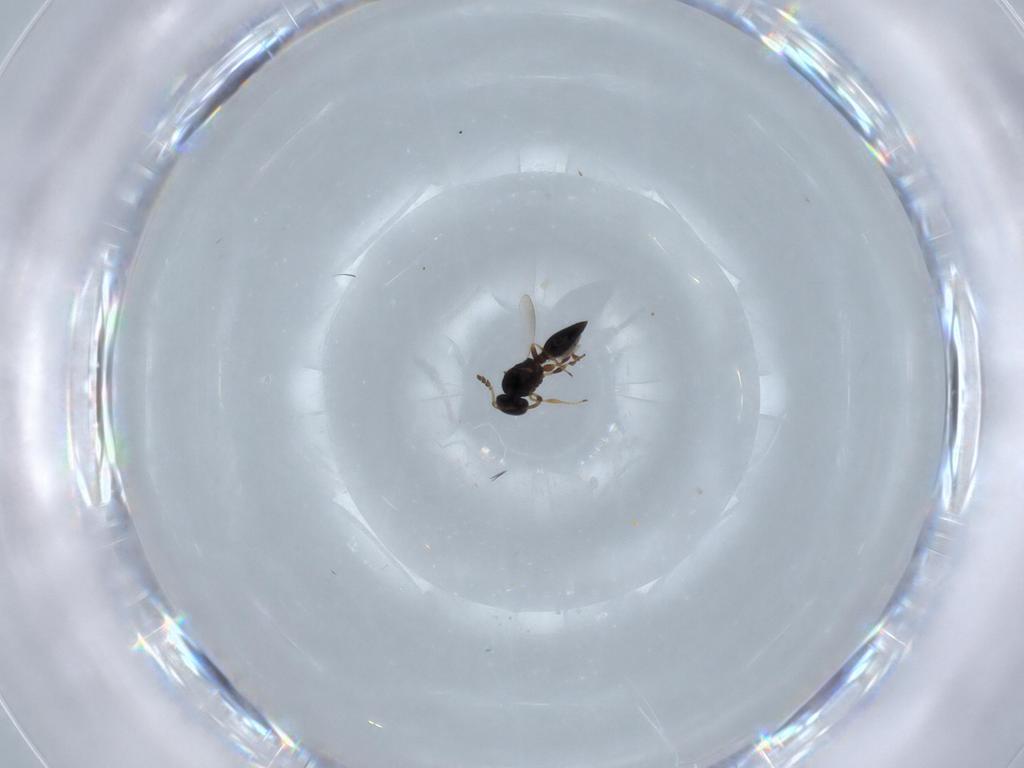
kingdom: Animalia
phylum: Arthropoda
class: Insecta
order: Hymenoptera
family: Platygastridae
